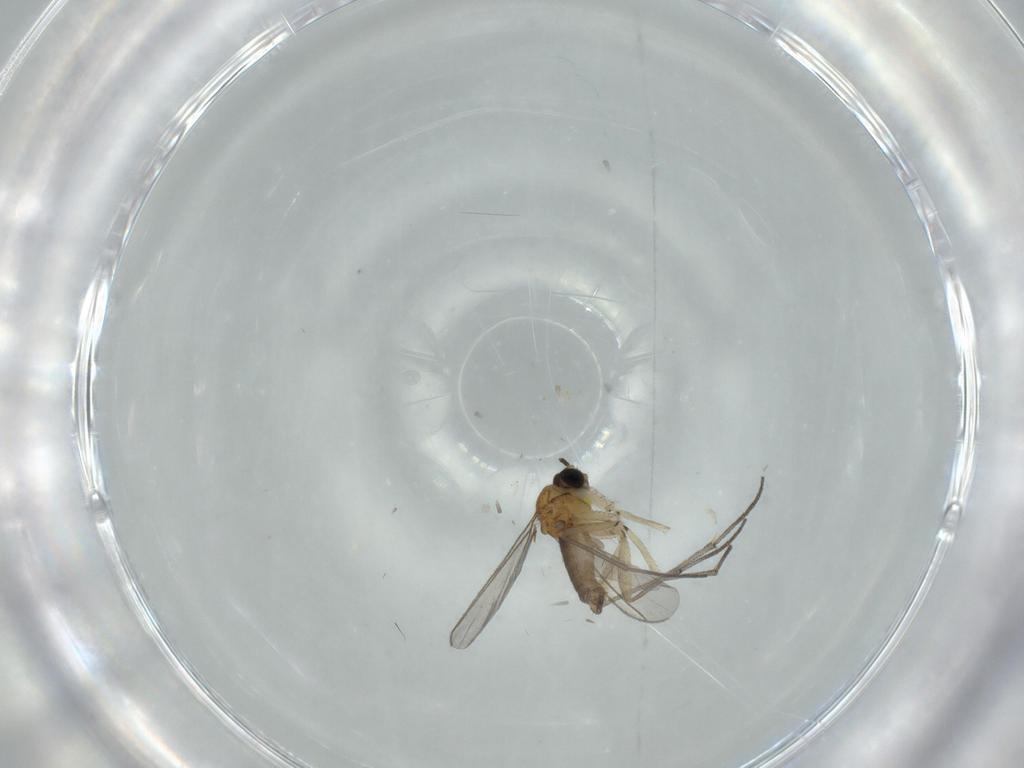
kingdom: Animalia
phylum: Arthropoda
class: Insecta
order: Diptera
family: Sciaridae
